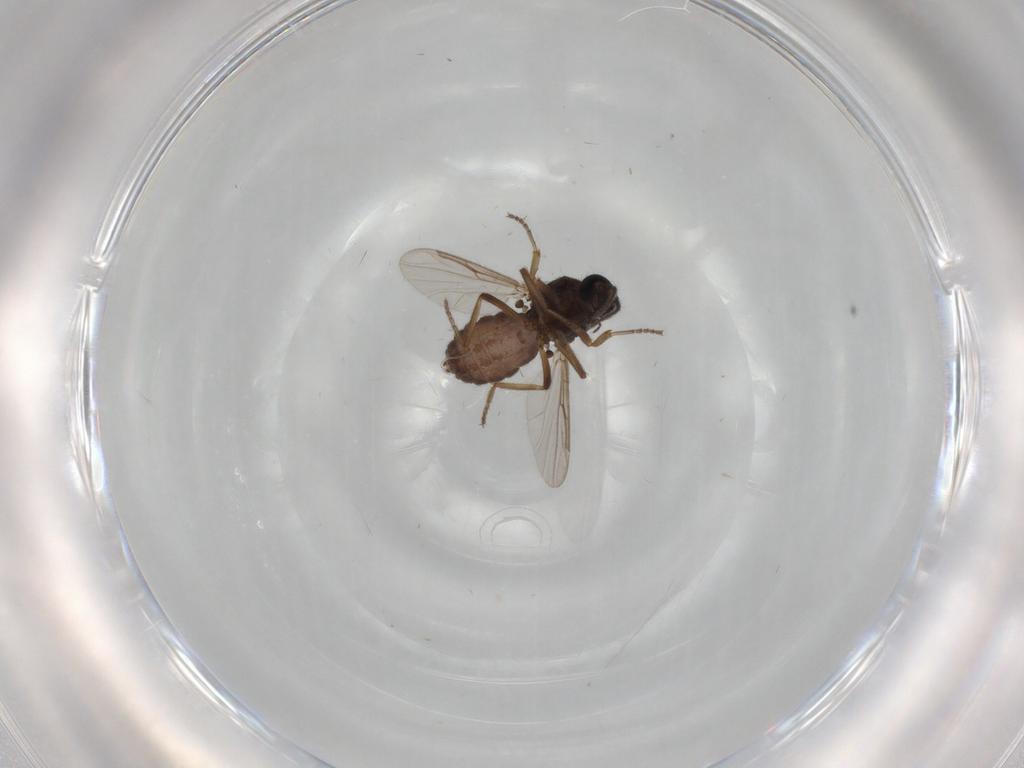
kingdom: Animalia
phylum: Arthropoda
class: Insecta
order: Diptera
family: Ceratopogonidae
